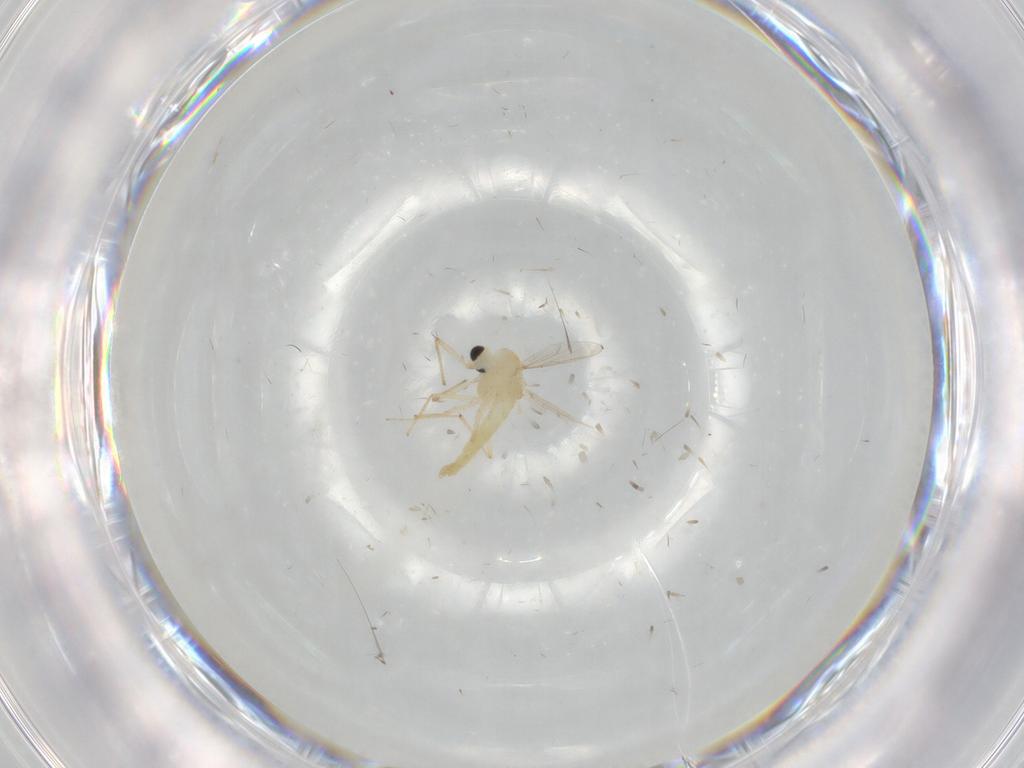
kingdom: Animalia
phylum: Arthropoda
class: Insecta
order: Diptera
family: Chironomidae
